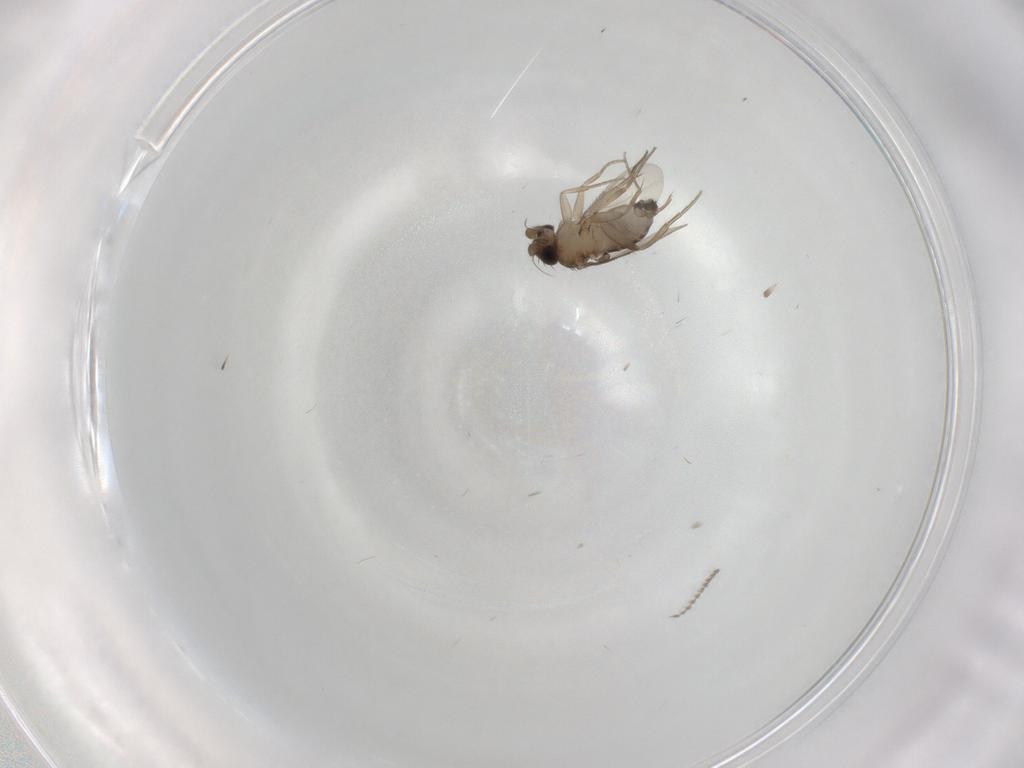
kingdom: Animalia
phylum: Arthropoda
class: Insecta
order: Diptera
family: Phoridae
